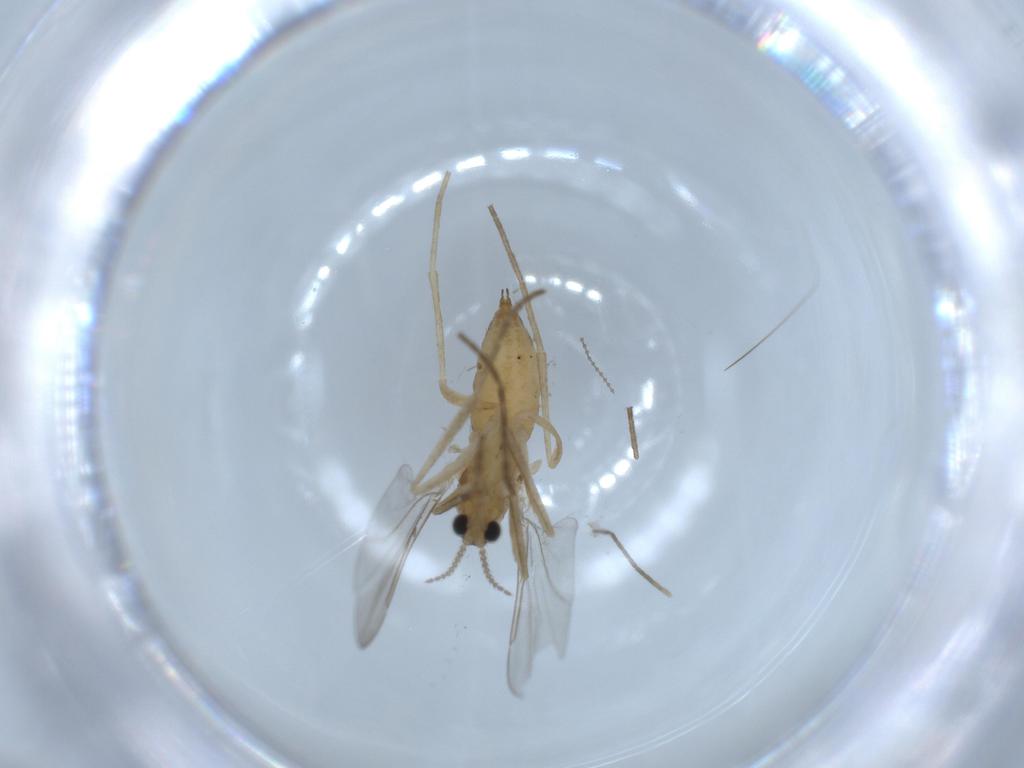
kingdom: Animalia
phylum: Arthropoda
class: Insecta
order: Diptera
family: Cecidomyiidae
